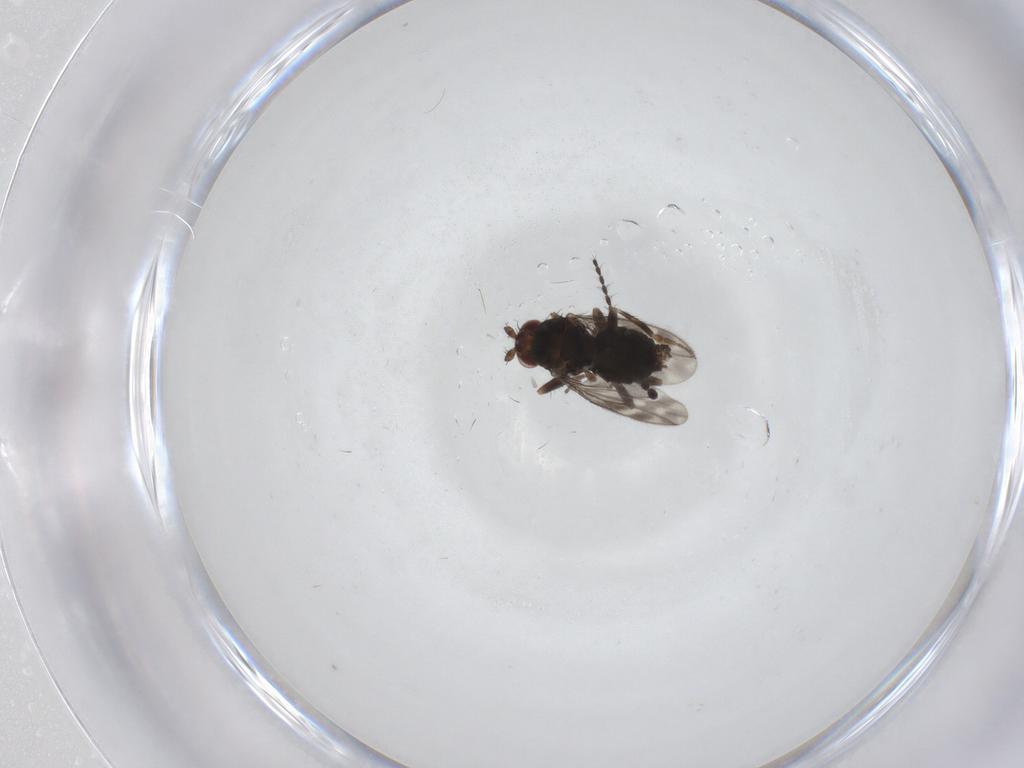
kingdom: Animalia
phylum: Arthropoda
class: Insecta
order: Diptera
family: Sphaeroceridae
